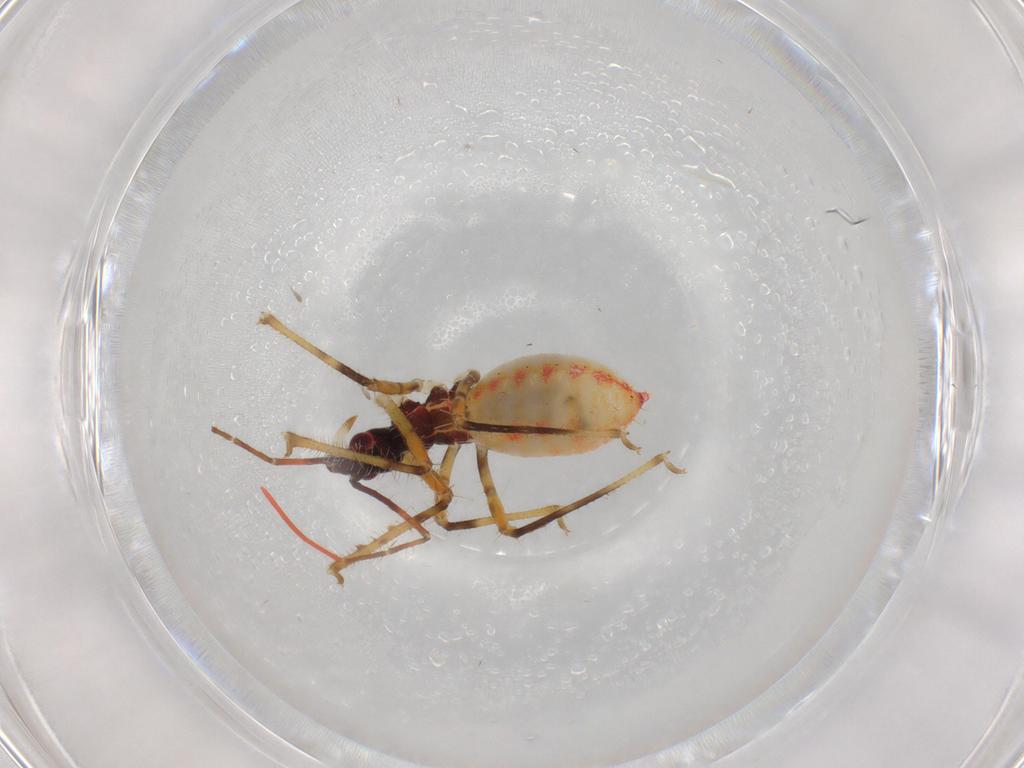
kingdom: Animalia
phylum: Arthropoda
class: Insecta
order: Hemiptera
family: Reduviidae
